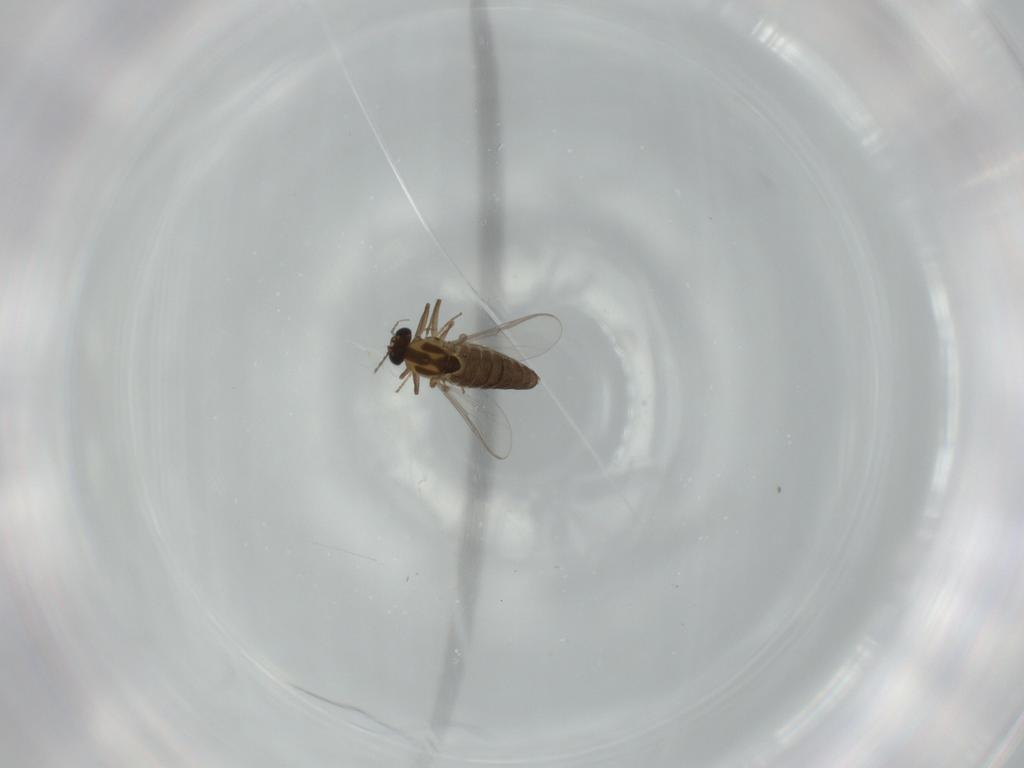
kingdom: Animalia
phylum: Arthropoda
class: Insecta
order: Diptera
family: Chironomidae
